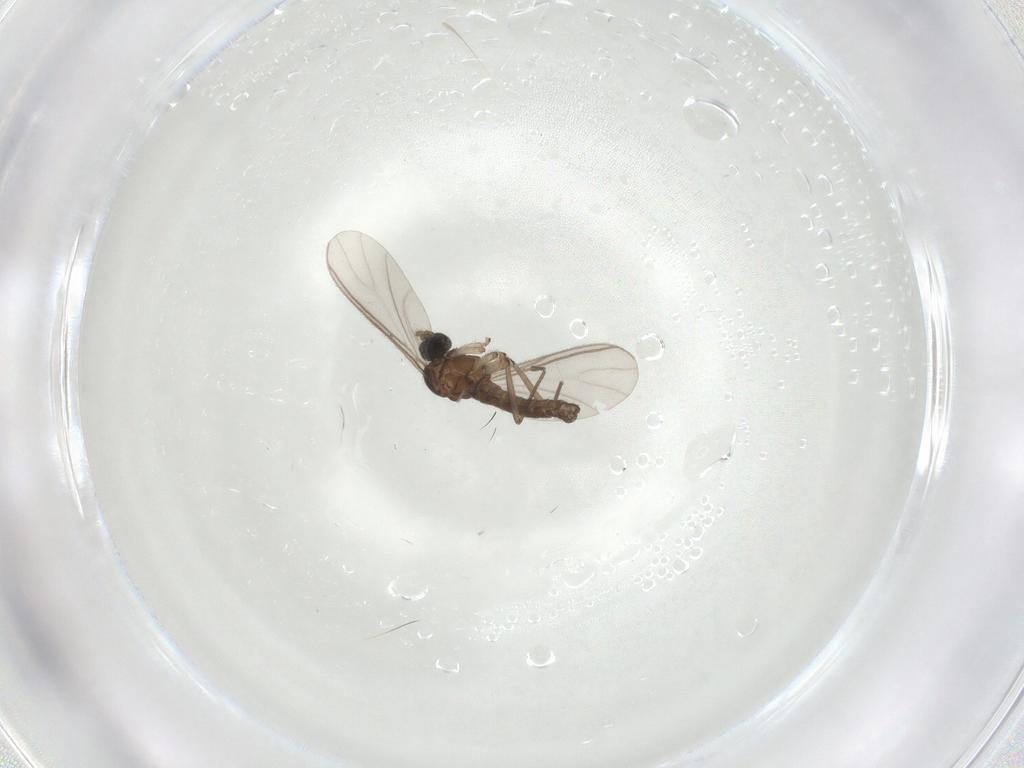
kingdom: Animalia
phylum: Arthropoda
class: Insecta
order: Diptera
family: Sciaridae
